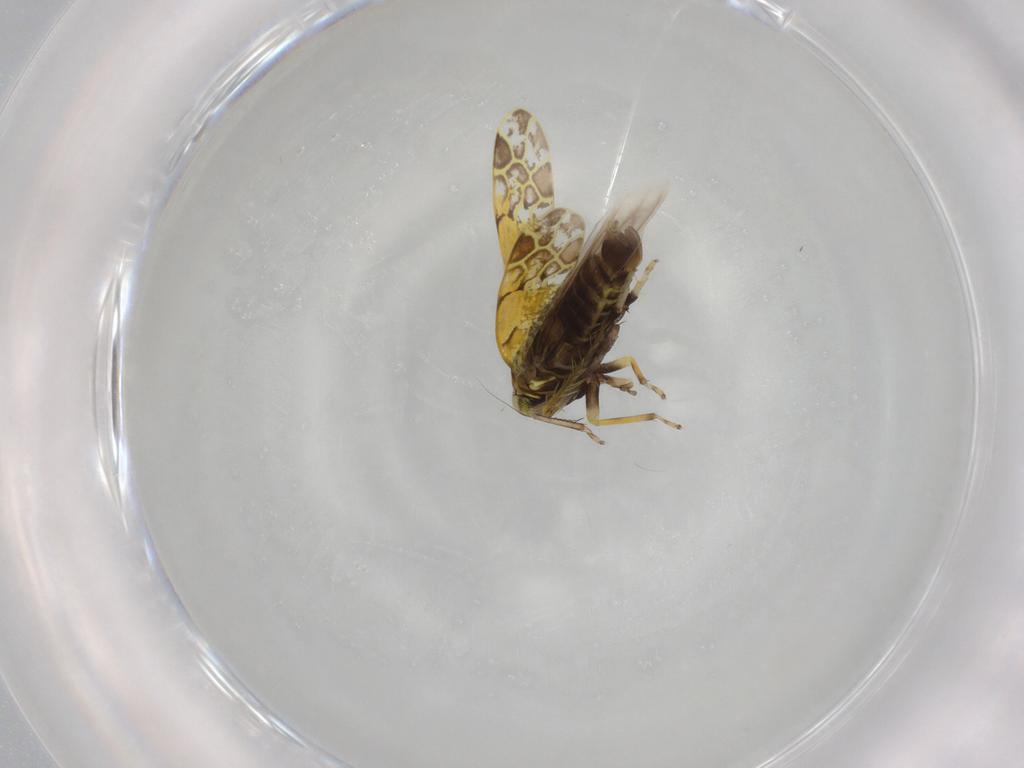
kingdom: Animalia
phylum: Arthropoda
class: Insecta
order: Hemiptera
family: Cicadellidae
